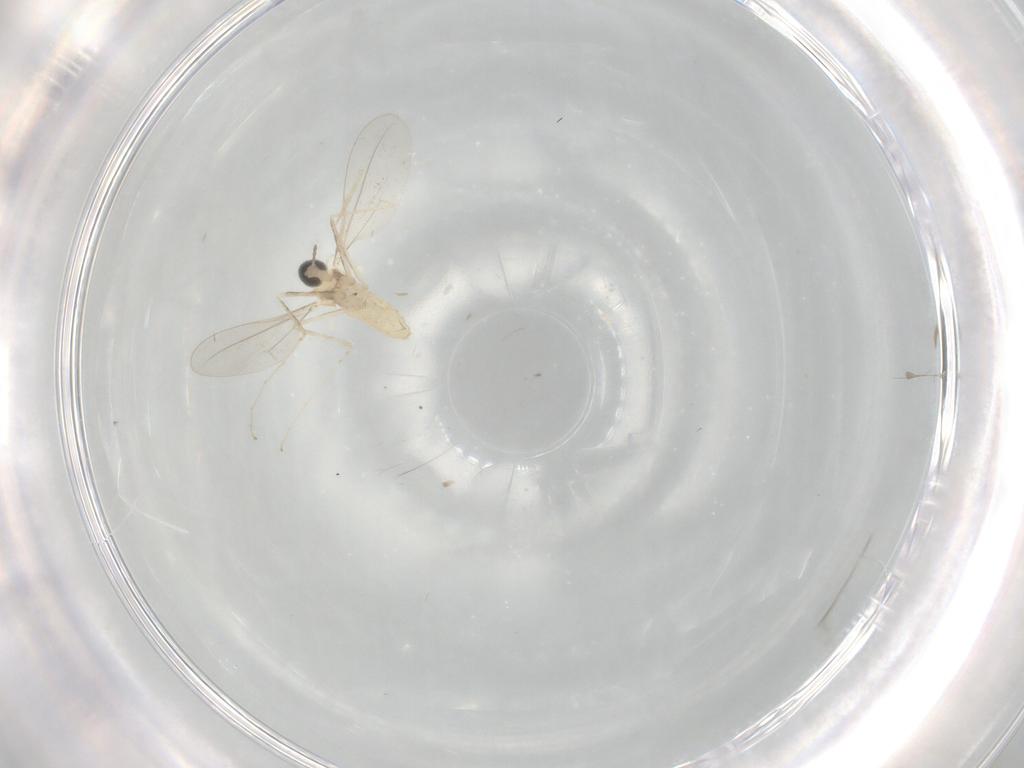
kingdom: Animalia
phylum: Arthropoda
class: Insecta
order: Diptera
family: Cecidomyiidae
